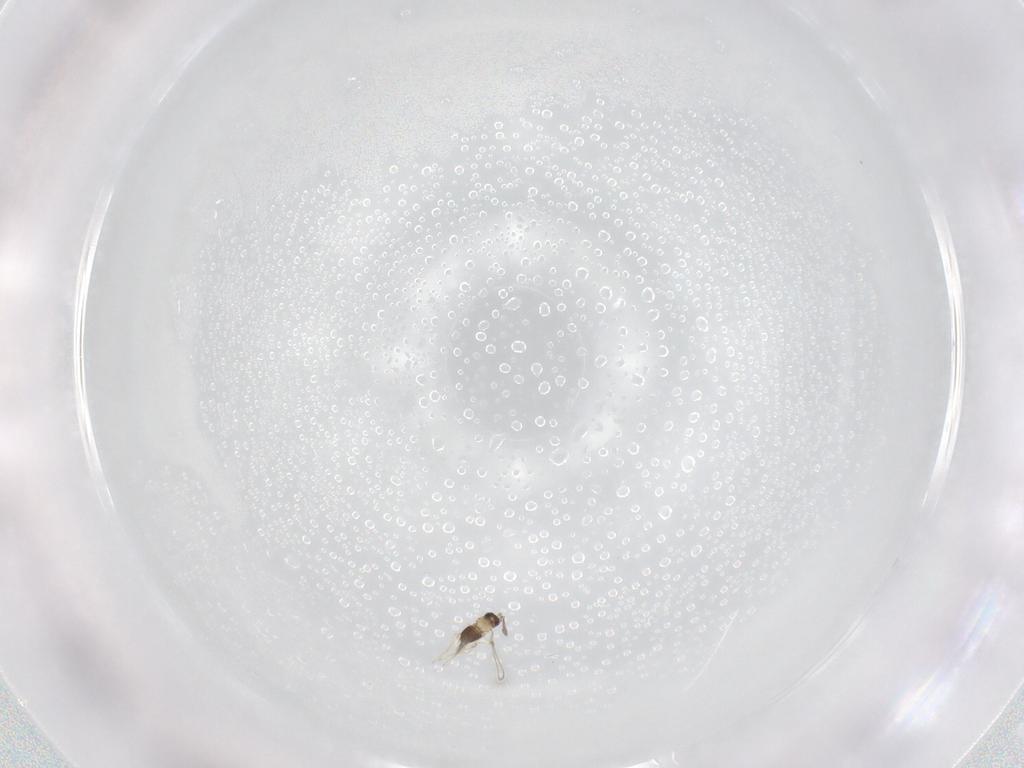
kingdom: Animalia
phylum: Arthropoda
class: Insecta
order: Hymenoptera
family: Mymaridae
